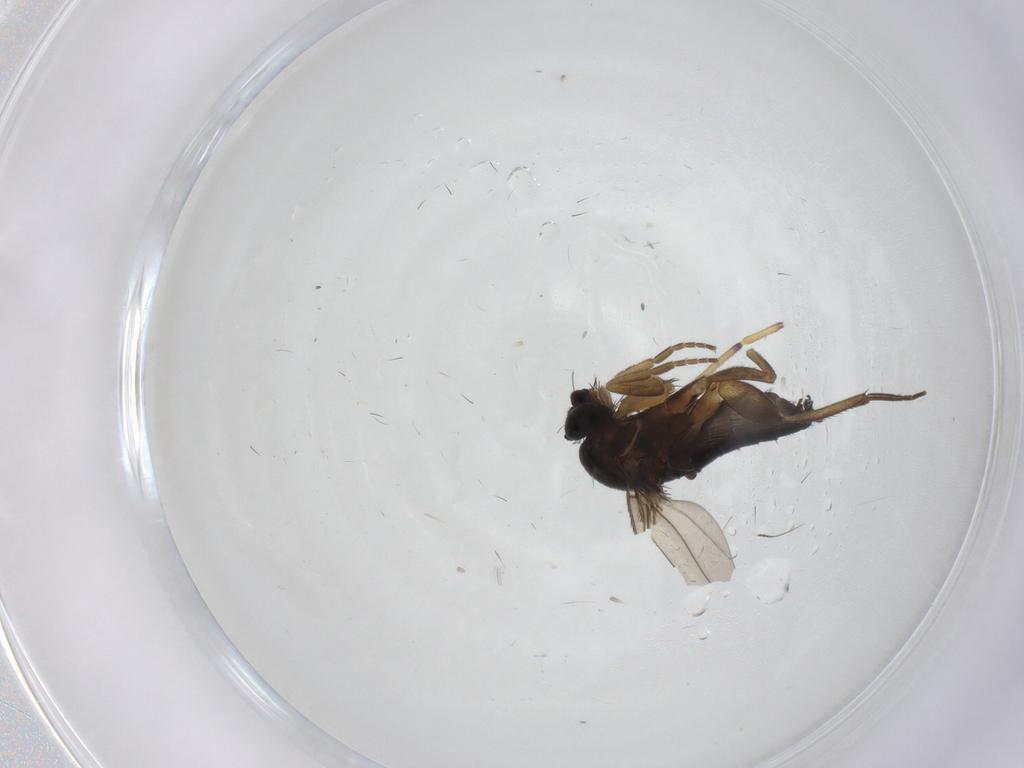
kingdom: Animalia
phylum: Arthropoda
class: Insecta
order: Diptera
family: Phoridae
